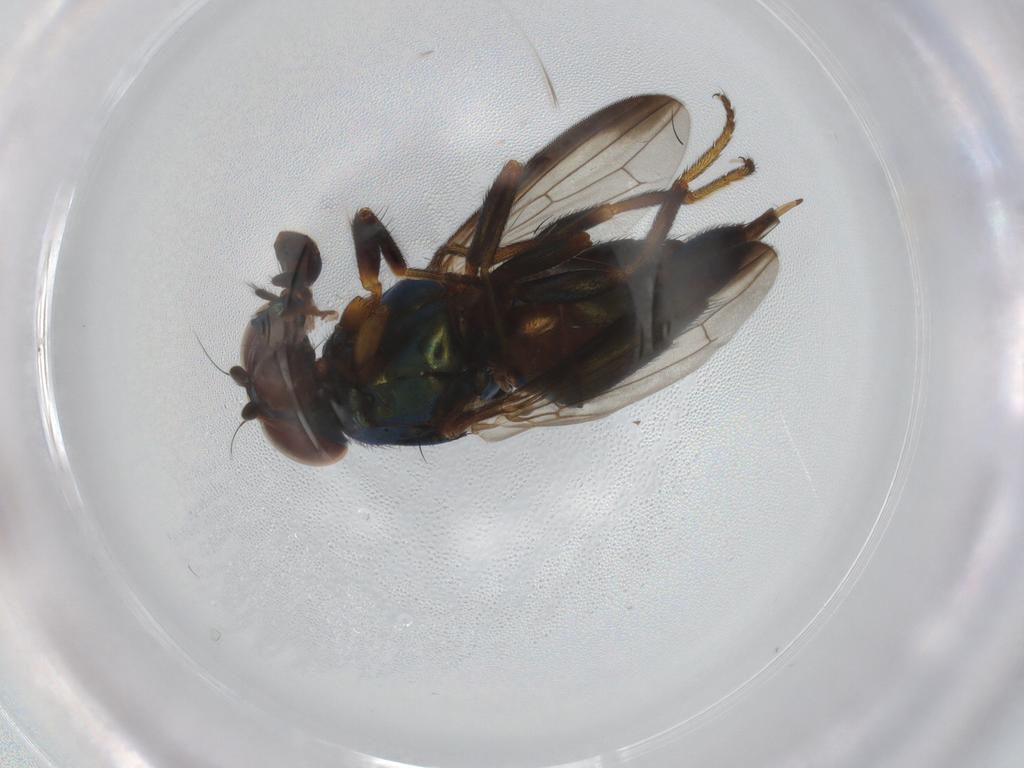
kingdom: Animalia
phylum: Arthropoda
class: Insecta
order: Diptera
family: Ulidiidae
